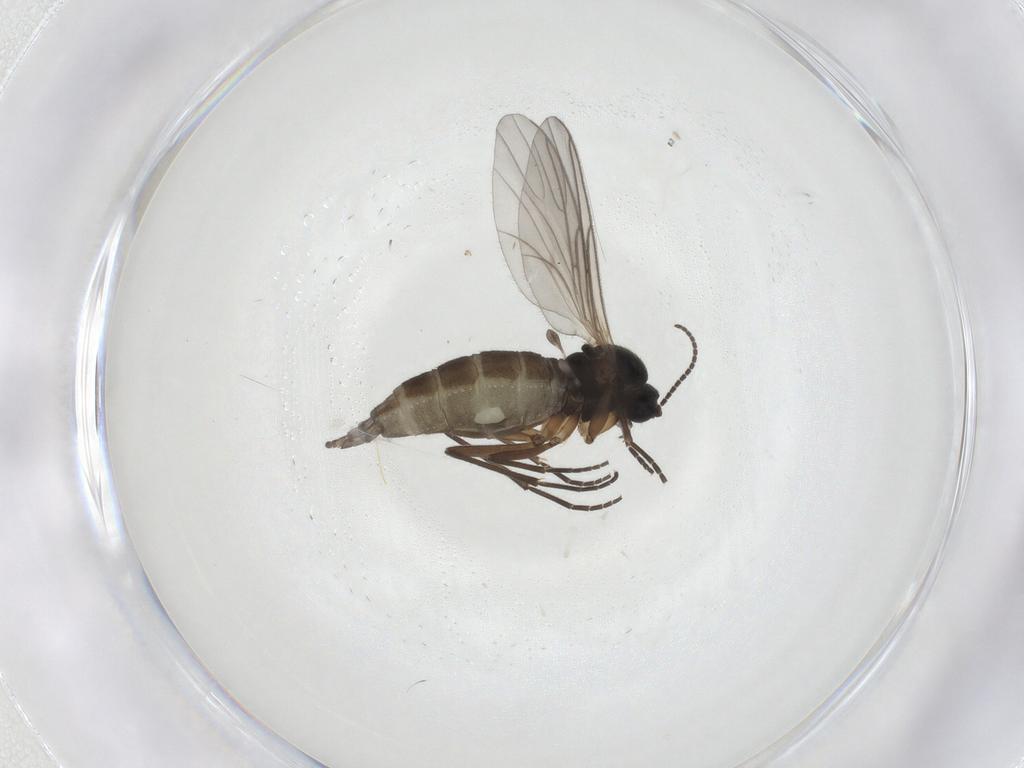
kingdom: Animalia
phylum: Arthropoda
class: Insecta
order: Diptera
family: Sciaridae
